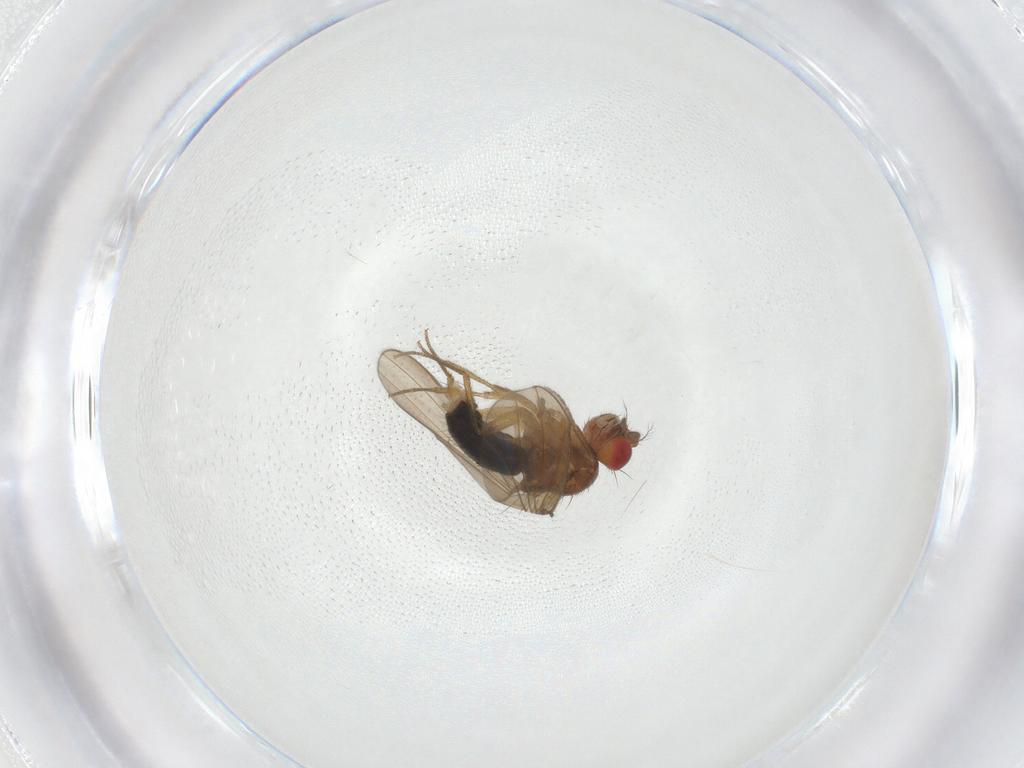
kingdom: Animalia
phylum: Arthropoda
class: Insecta
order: Diptera
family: Drosophilidae
